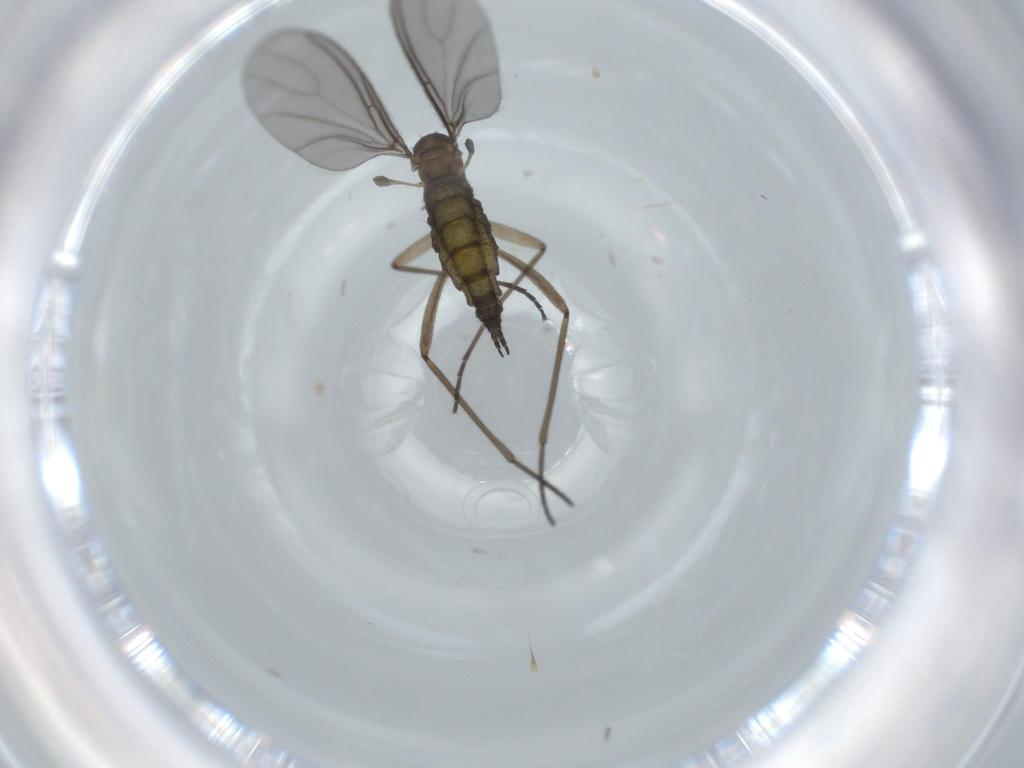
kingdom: Animalia
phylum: Arthropoda
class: Insecta
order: Diptera
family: Sciaridae
